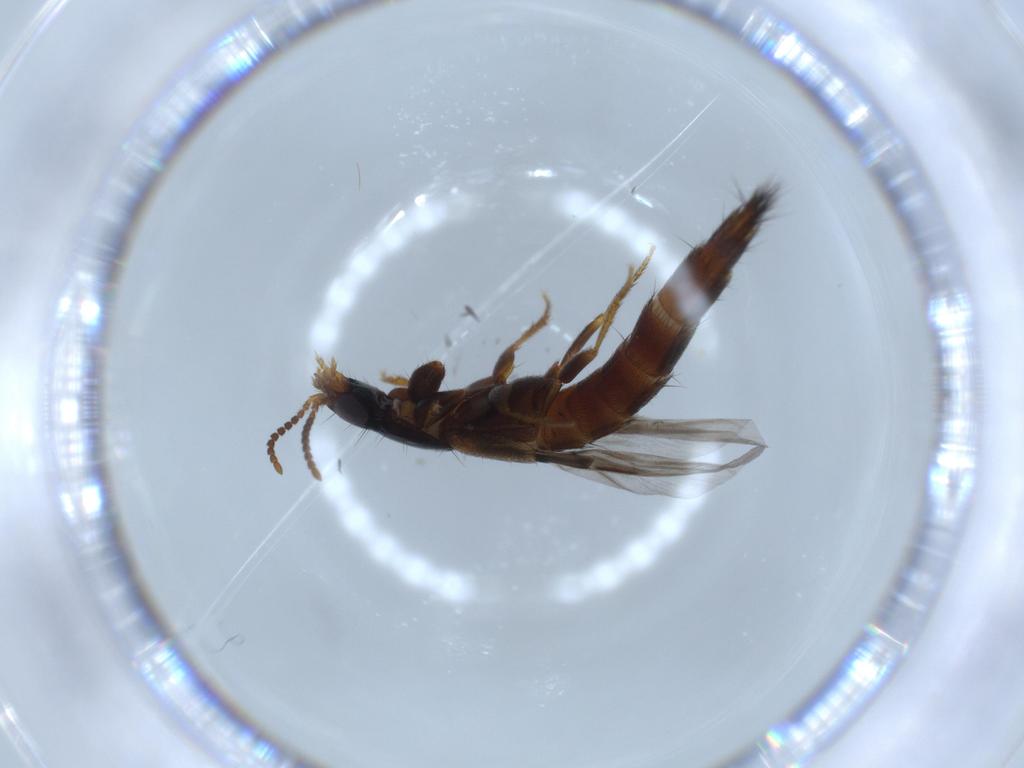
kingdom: Animalia
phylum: Arthropoda
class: Insecta
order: Coleoptera
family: Staphylinidae
